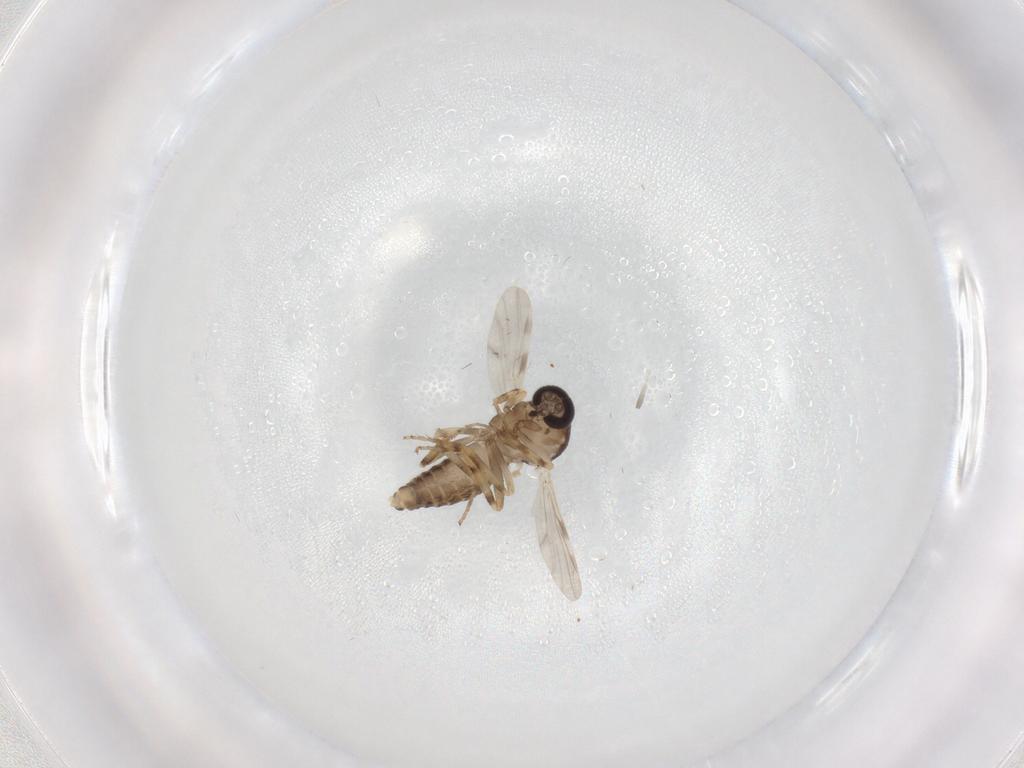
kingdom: Animalia
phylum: Arthropoda
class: Insecta
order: Diptera
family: Ceratopogonidae
